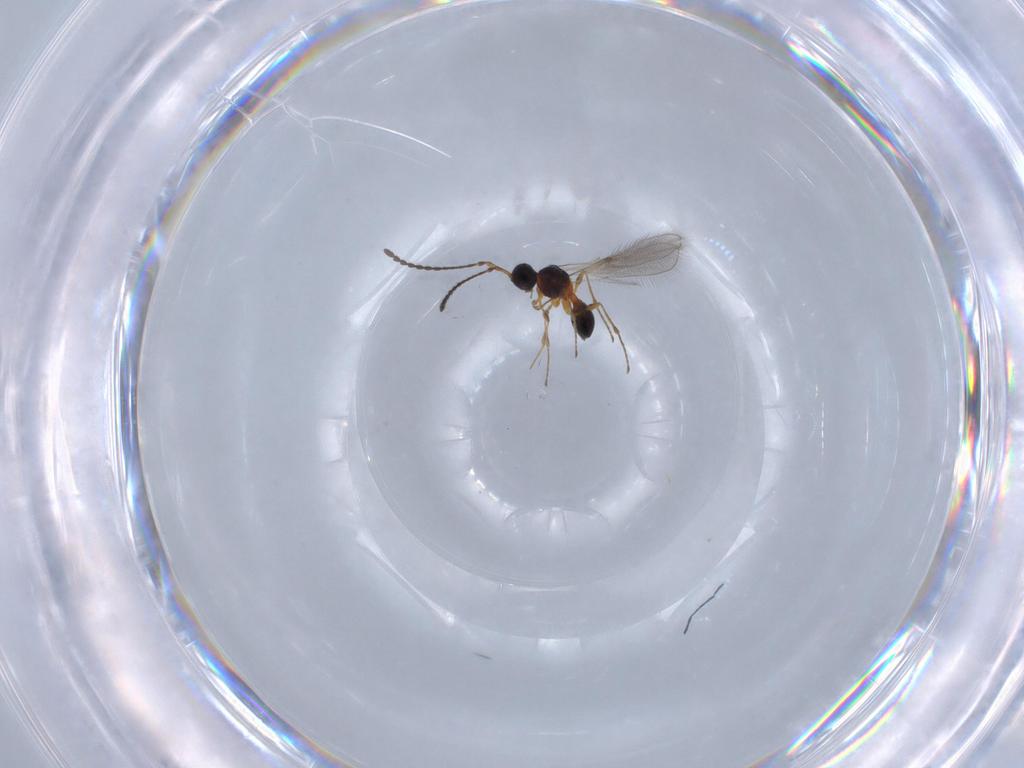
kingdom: Animalia
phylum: Arthropoda
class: Insecta
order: Hymenoptera
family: Diapriidae
